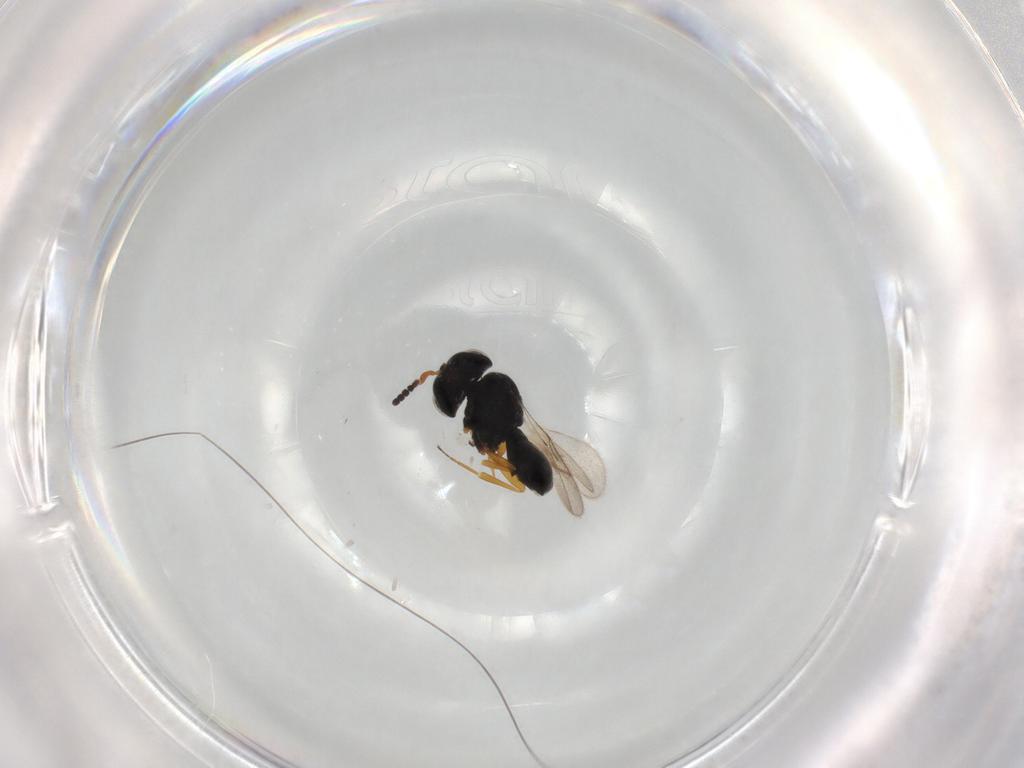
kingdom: Animalia
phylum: Arthropoda
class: Insecta
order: Hymenoptera
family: Scelionidae
